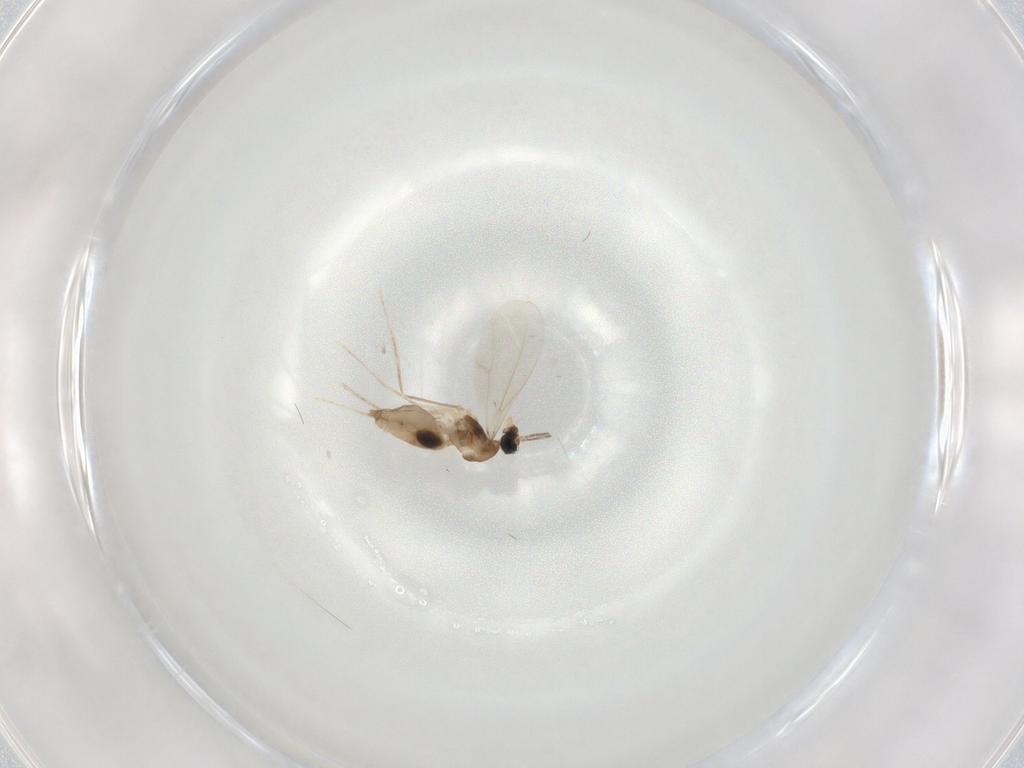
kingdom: Animalia
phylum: Arthropoda
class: Insecta
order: Diptera
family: Cecidomyiidae
